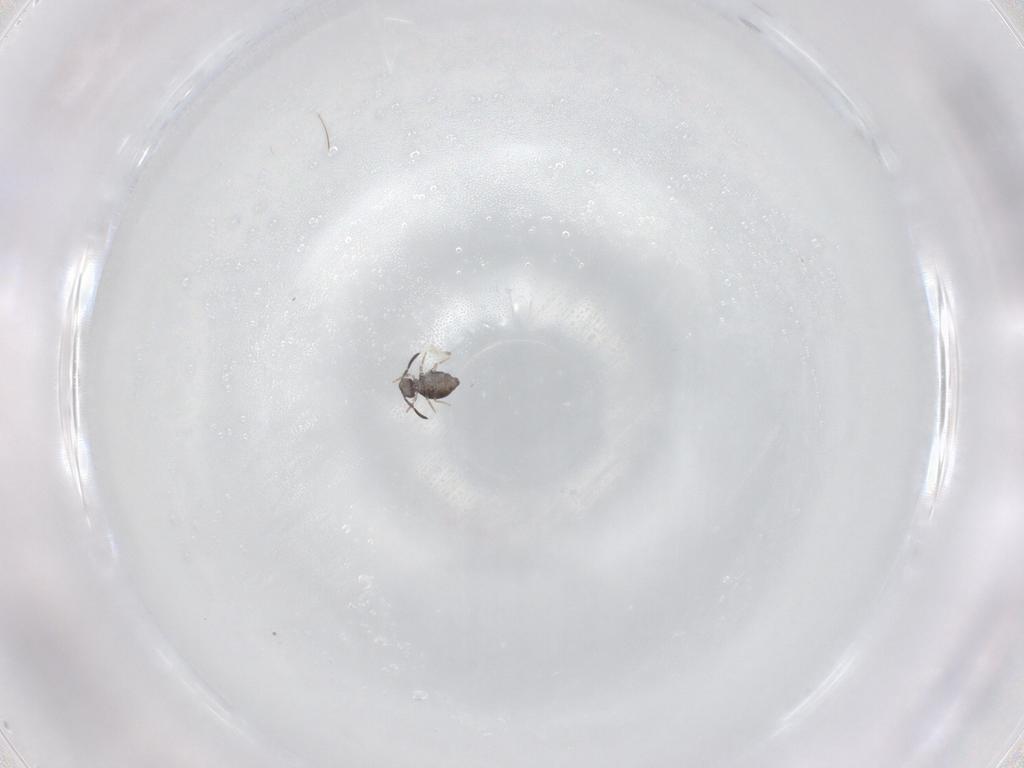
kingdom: Animalia
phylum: Arthropoda
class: Collembola
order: Symphypleona
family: Katiannidae
